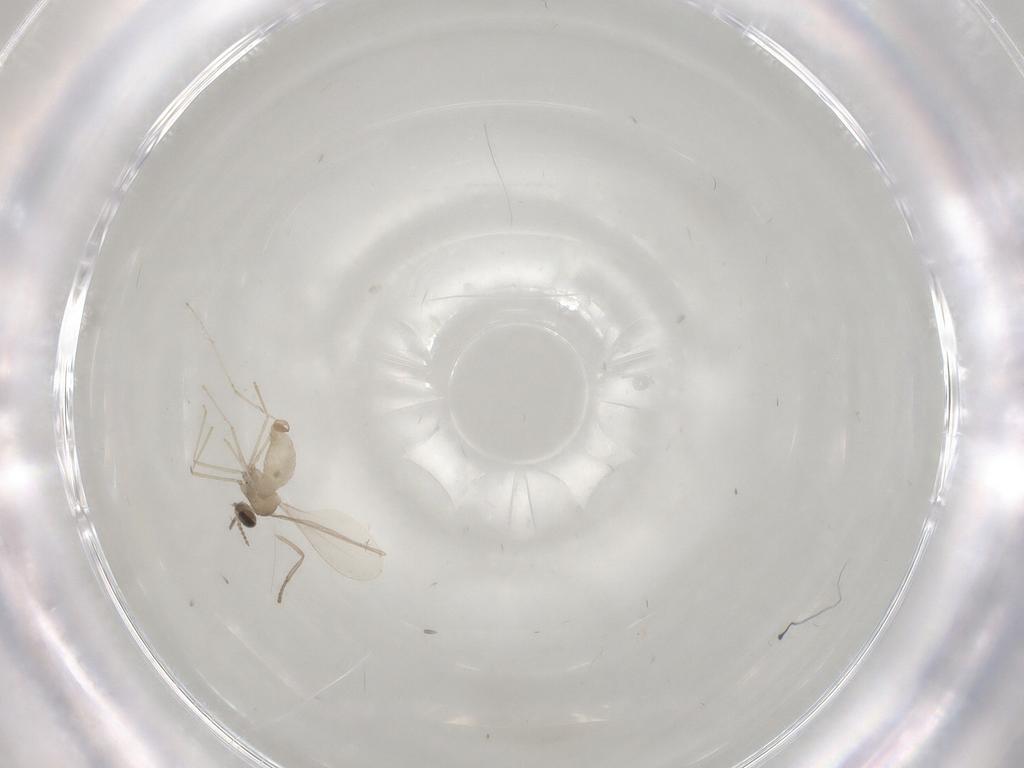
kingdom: Animalia
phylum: Arthropoda
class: Insecta
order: Diptera
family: Cecidomyiidae
